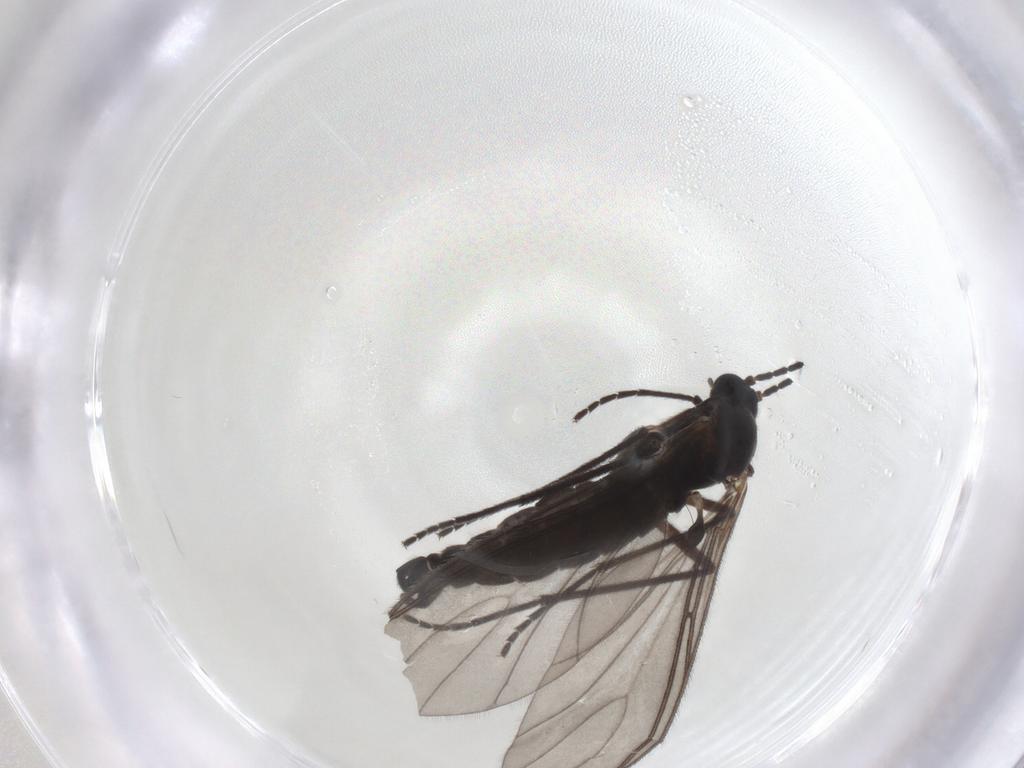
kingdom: Animalia
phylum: Arthropoda
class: Insecta
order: Diptera
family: Sciaridae
